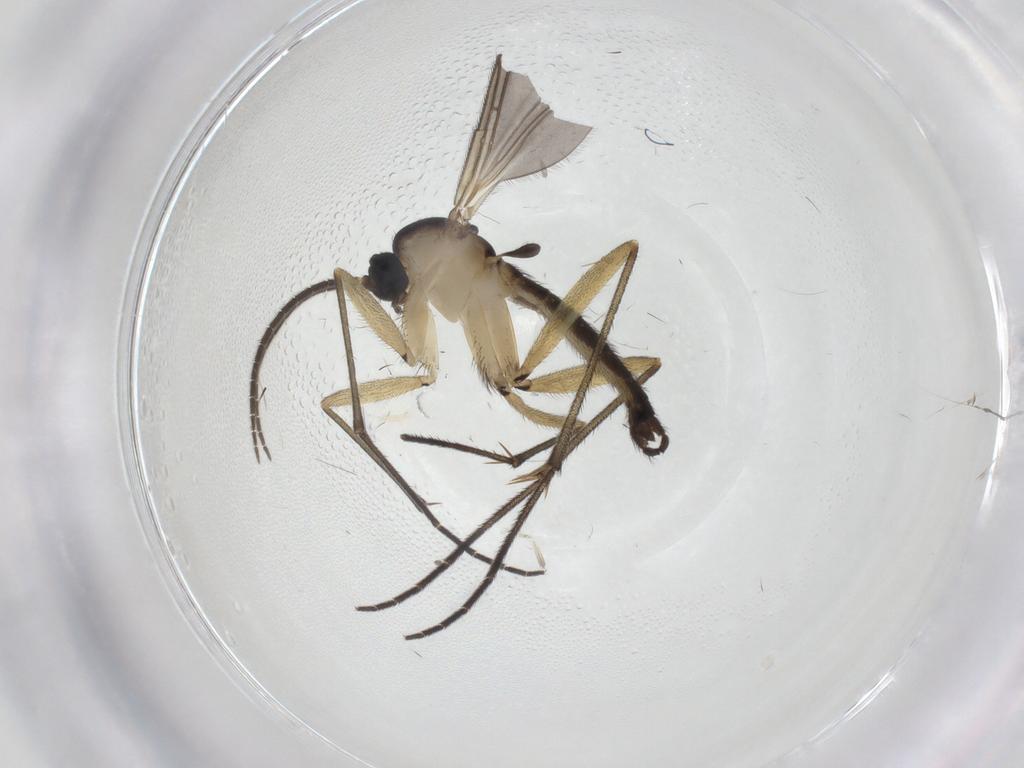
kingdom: Animalia
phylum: Arthropoda
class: Insecta
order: Diptera
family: Sciaridae
